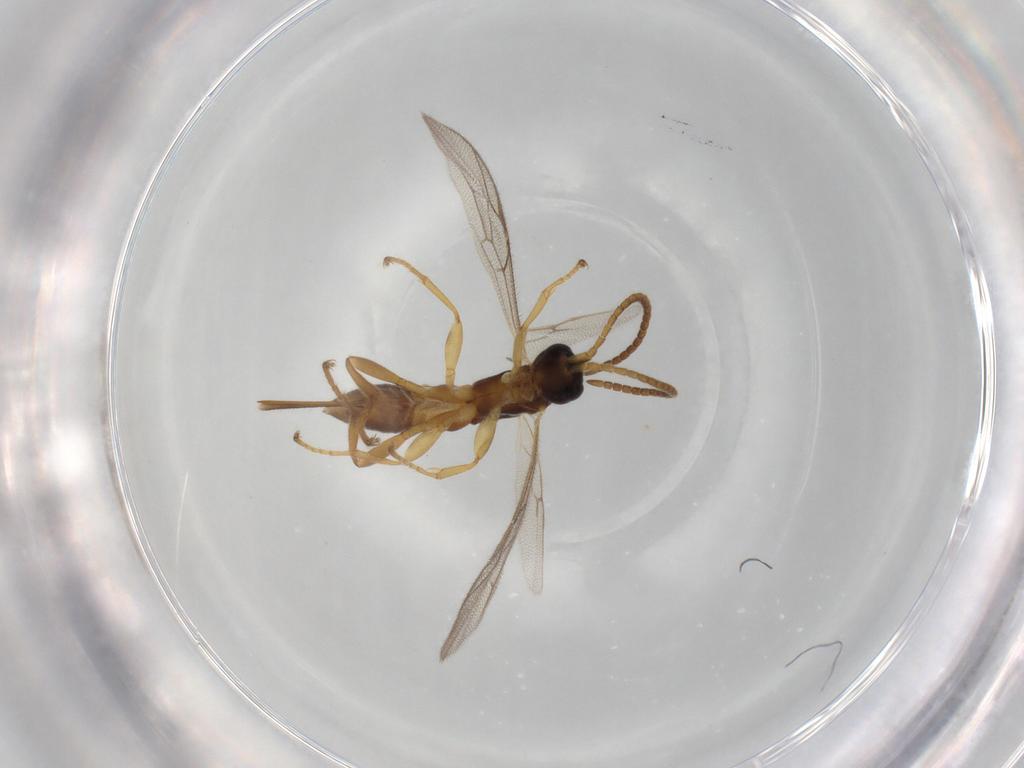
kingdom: Animalia
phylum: Arthropoda
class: Insecta
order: Hymenoptera
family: Ichneumonidae
